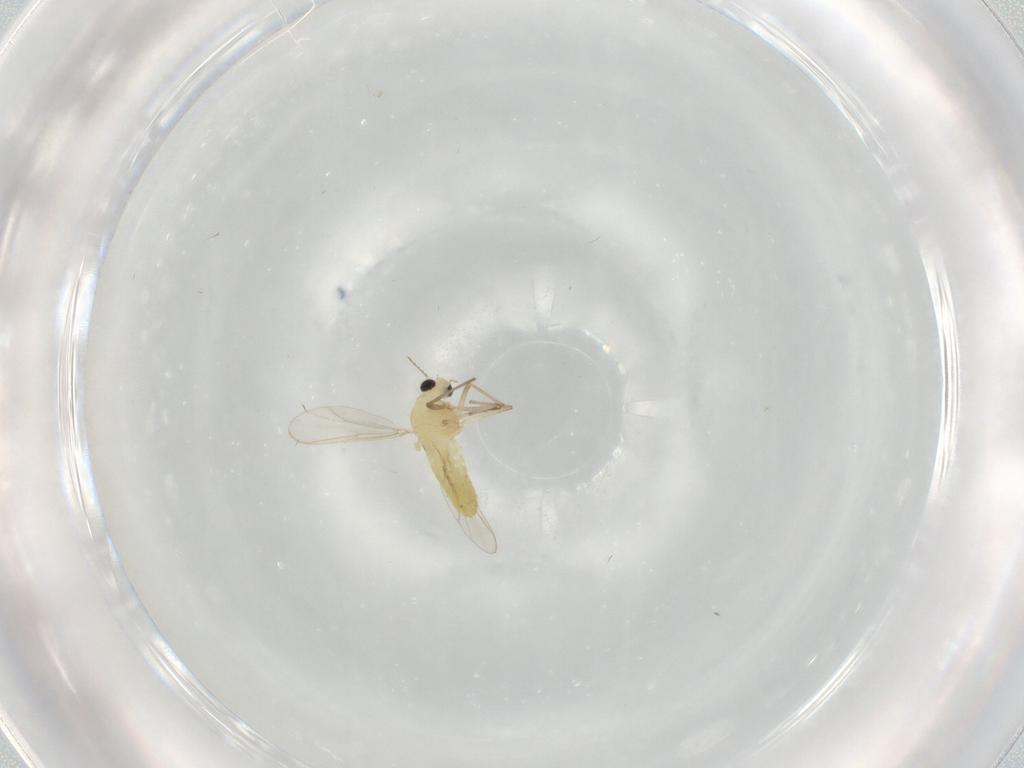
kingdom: Animalia
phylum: Arthropoda
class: Insecta
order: Diptera
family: Chironomidae
